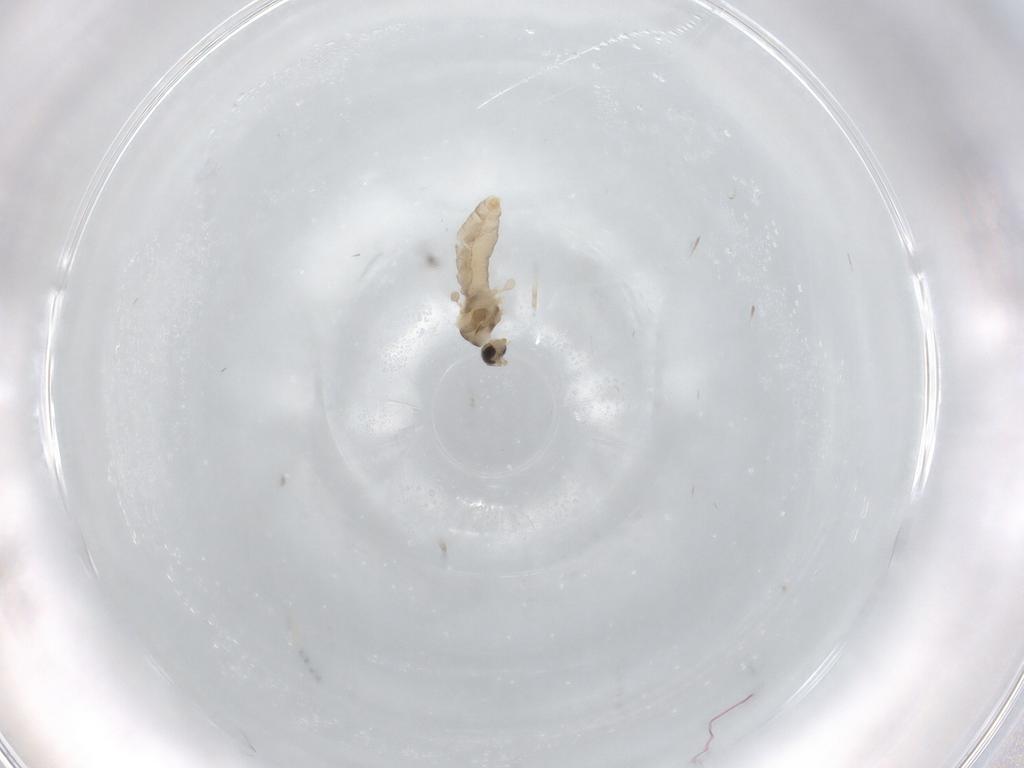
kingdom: Animalia
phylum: Arthropoda
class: Insecta
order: Diptera
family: Cecidomyiidae
